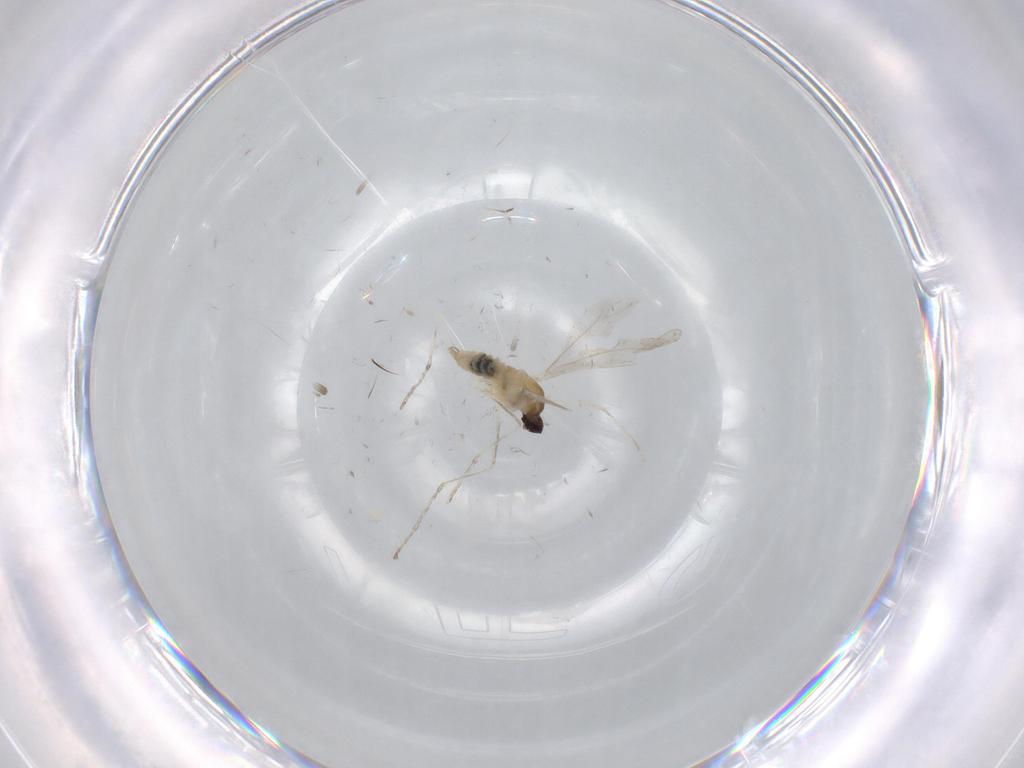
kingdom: Animalia
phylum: Arthropoda
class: Insecta
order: Diptera
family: Cecidomyiidae
